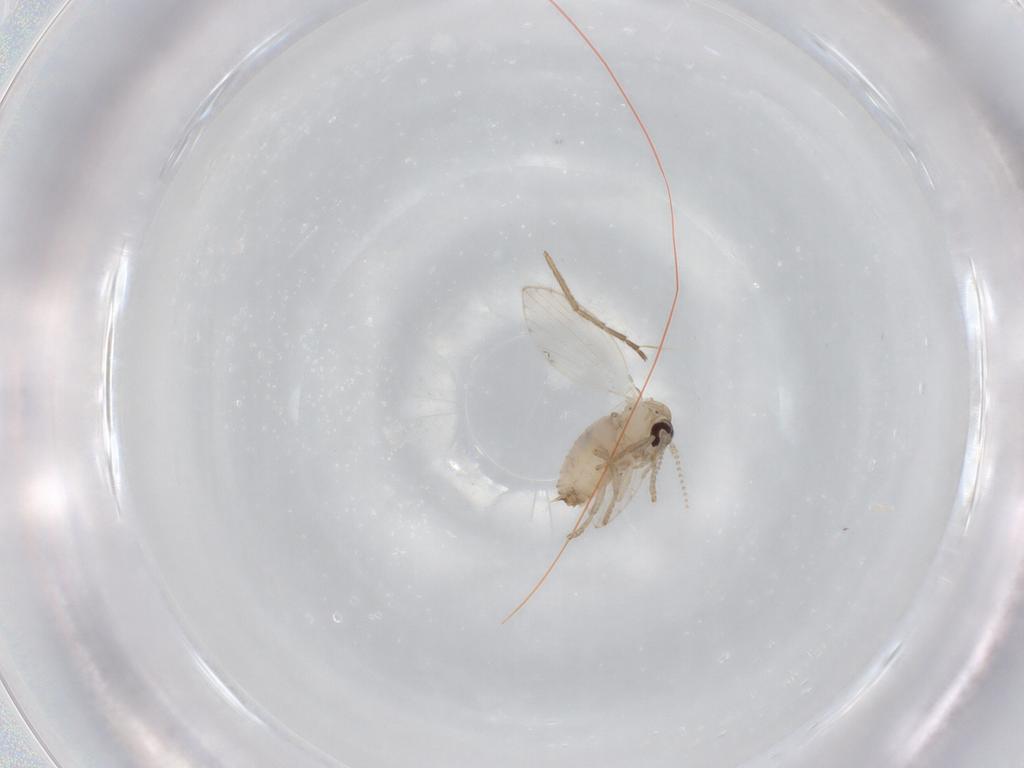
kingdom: Animalia
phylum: Arthropoda
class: Insecta
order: Diptera
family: Psychodidae
